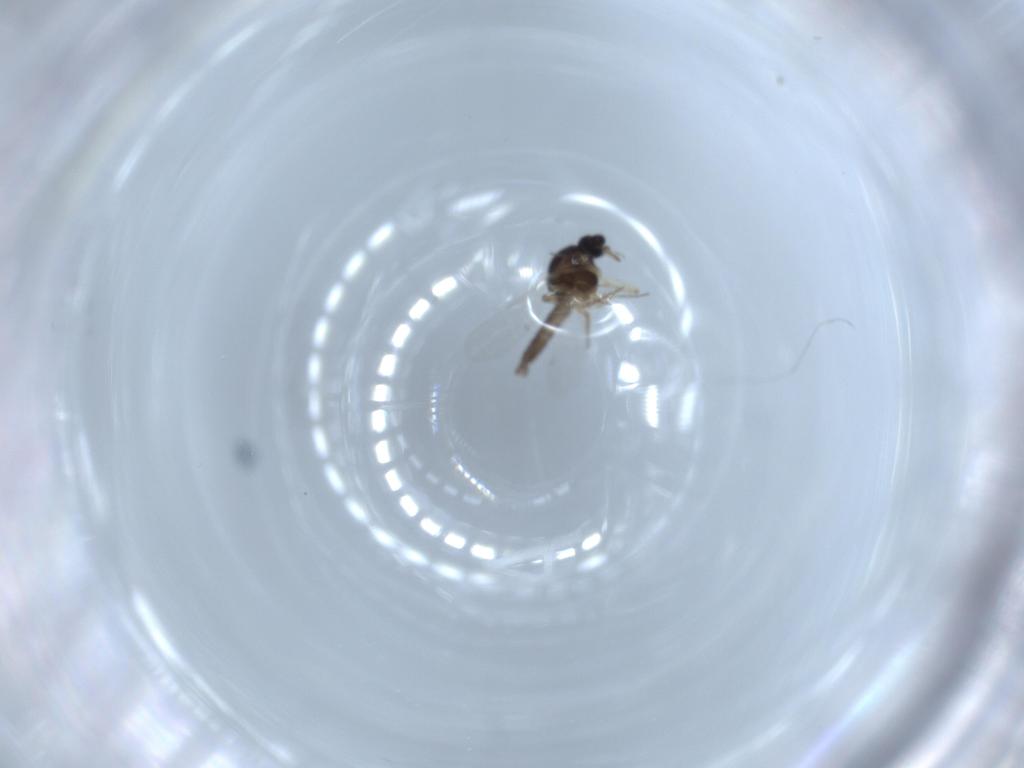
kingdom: Animalia
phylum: Arthropoda
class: Insecta
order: Diptera
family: Ceratopogonidae
